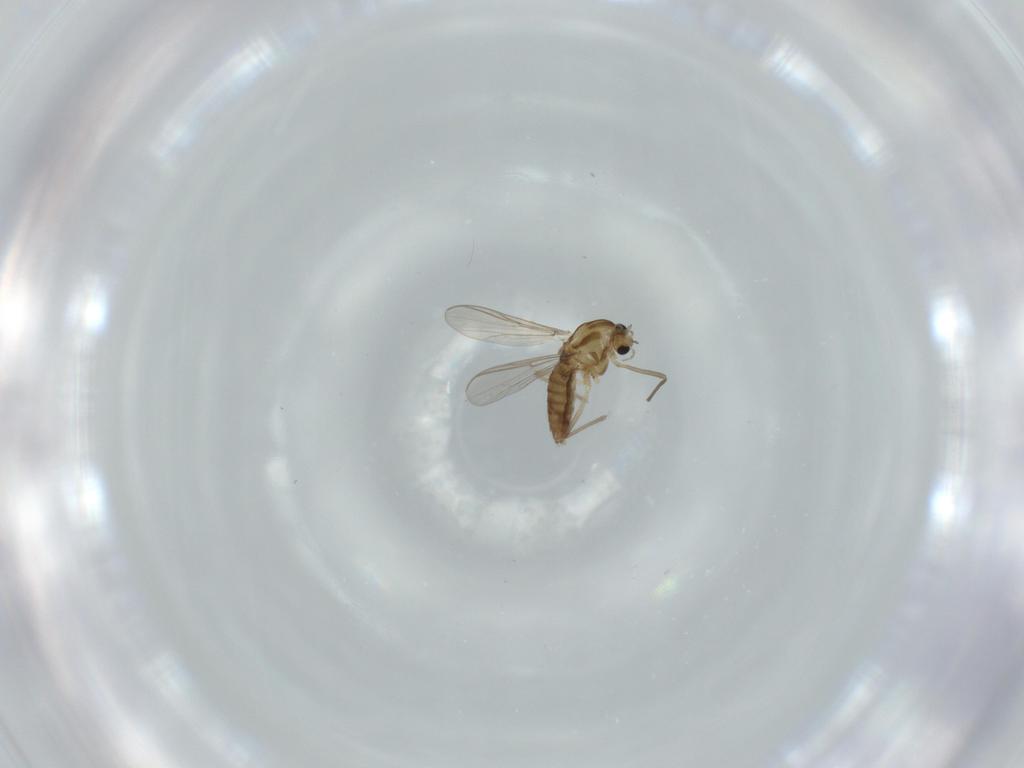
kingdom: Animalia
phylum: Arthropoda
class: Insecta
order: Diptera
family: Chironomidae
